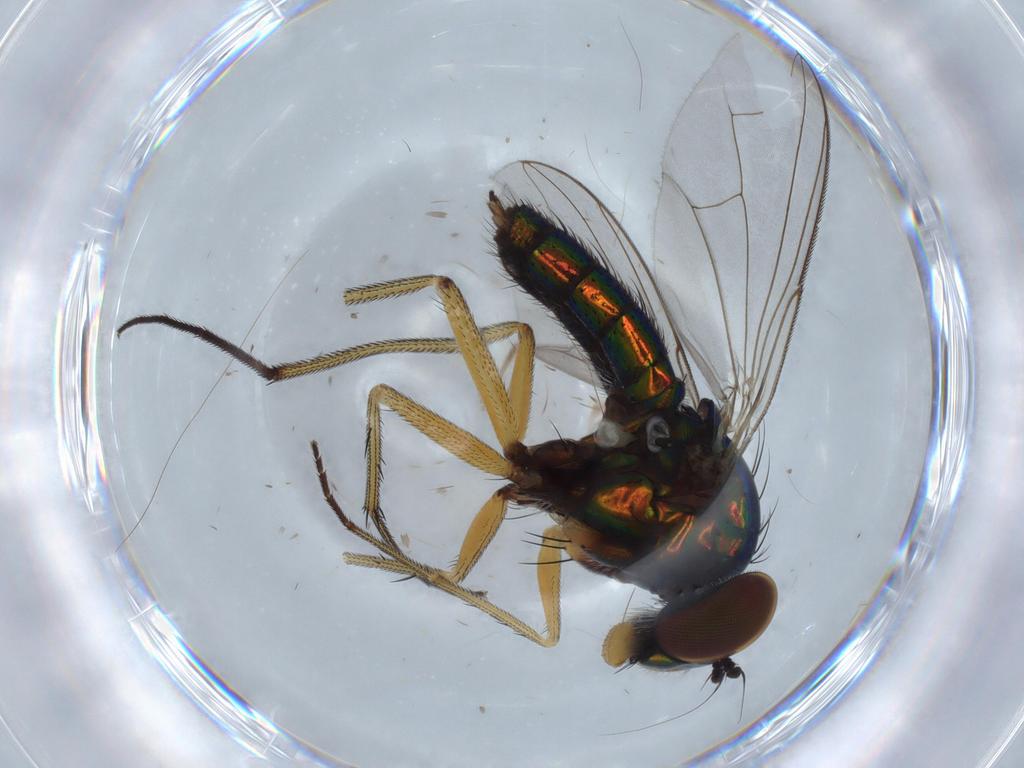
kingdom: Animalia
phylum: Arthropoda
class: Insecta
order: Diptera
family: Dolichopodidae
